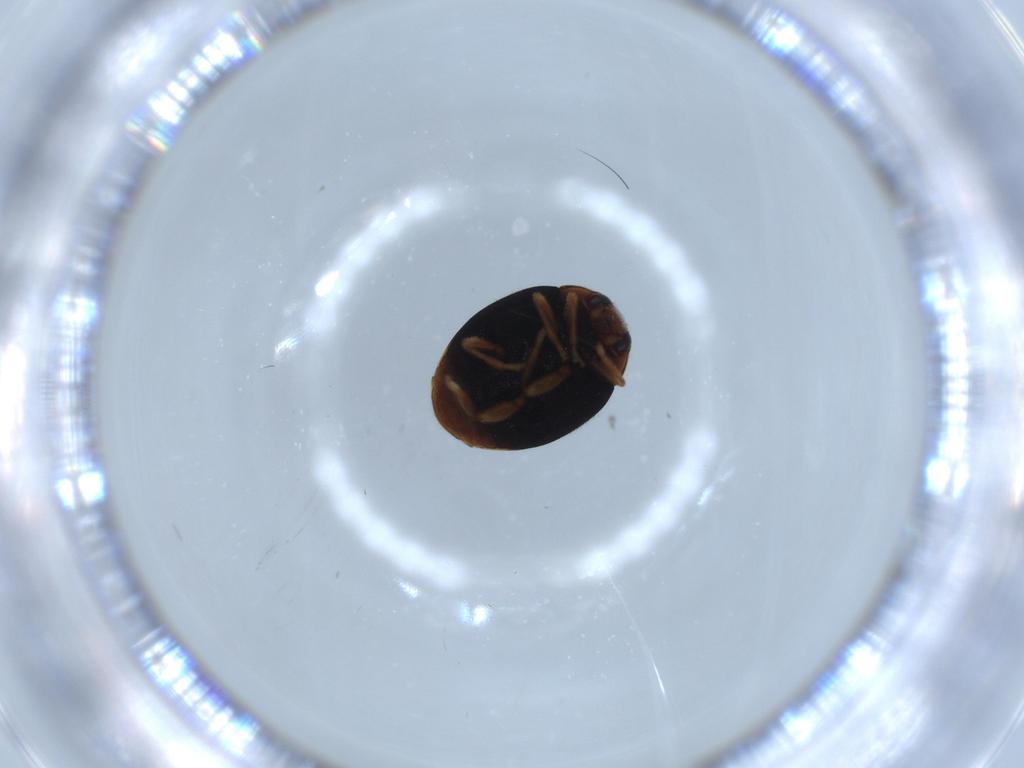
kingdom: Animalia
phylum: Arthropoda
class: Insecta
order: Coleoptera
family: Coccinellidae
